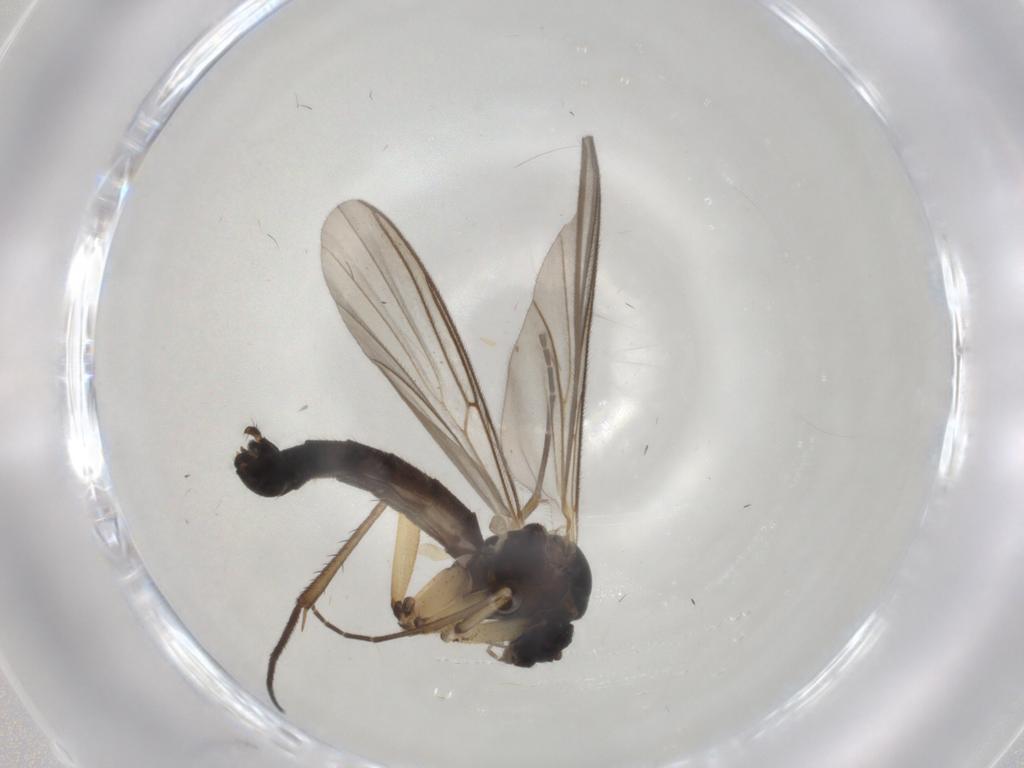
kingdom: Animalia
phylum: Arthropoda
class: Insecta
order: Diptera
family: Mycetophilidae
